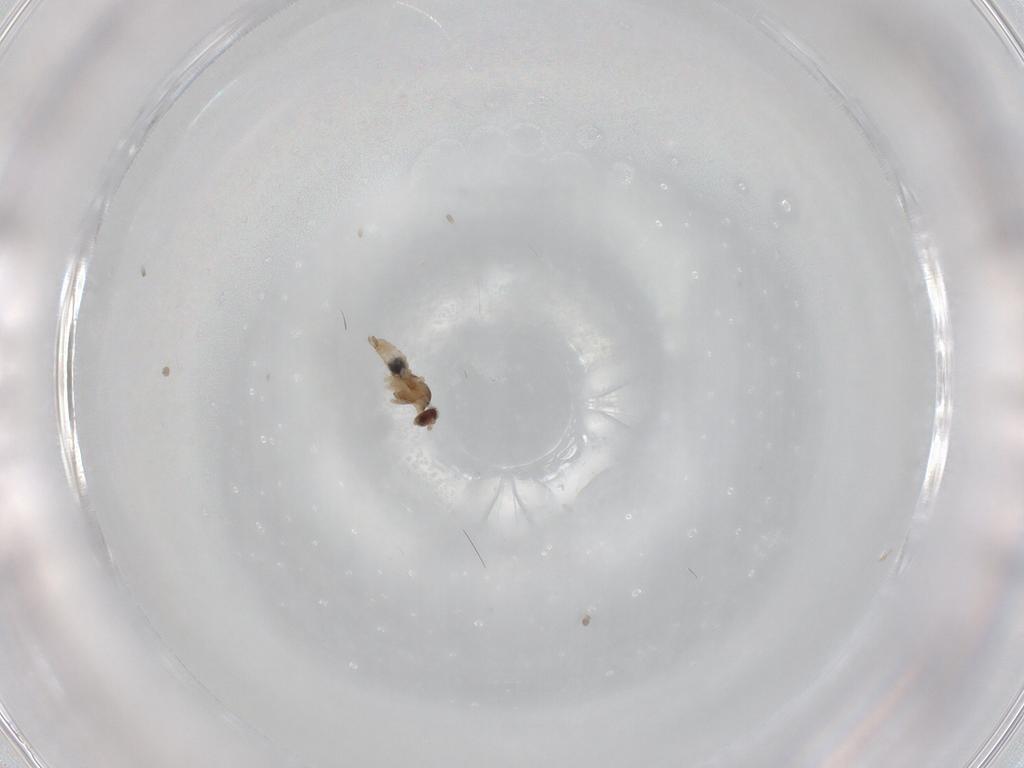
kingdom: Animalia
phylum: Arthropoda
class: Insecta
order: Diptera
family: Cecidomyiidae
